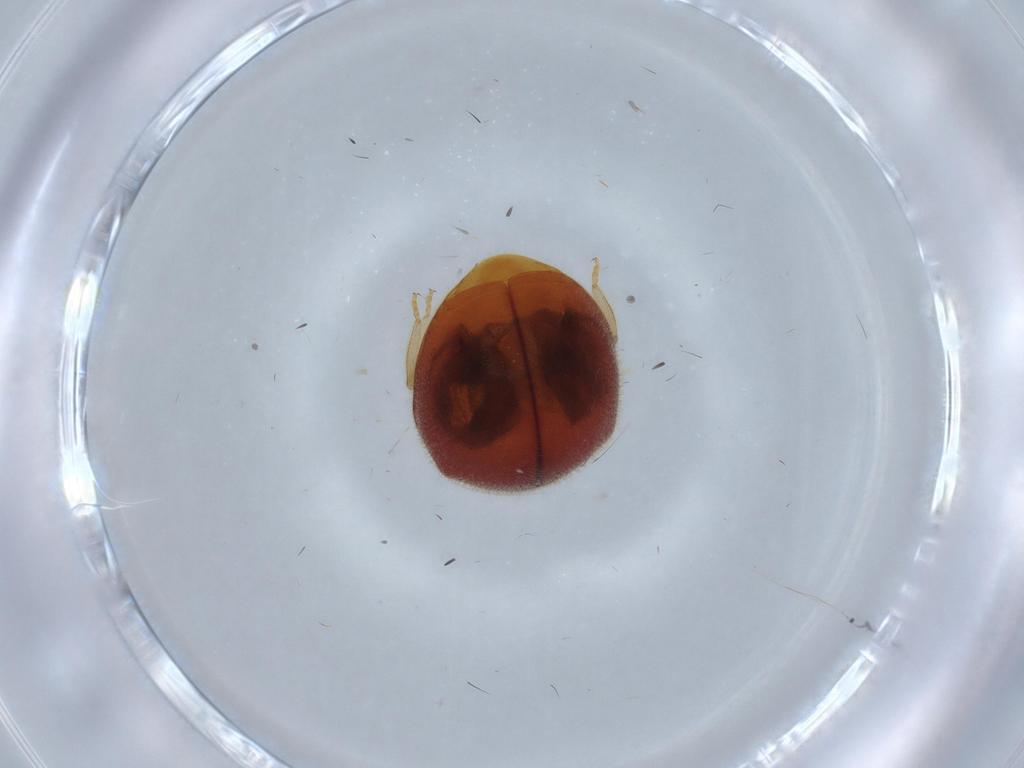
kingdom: Animalia
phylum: Arthropoda
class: Insecta
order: Coleoptera
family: Coccinellidae
